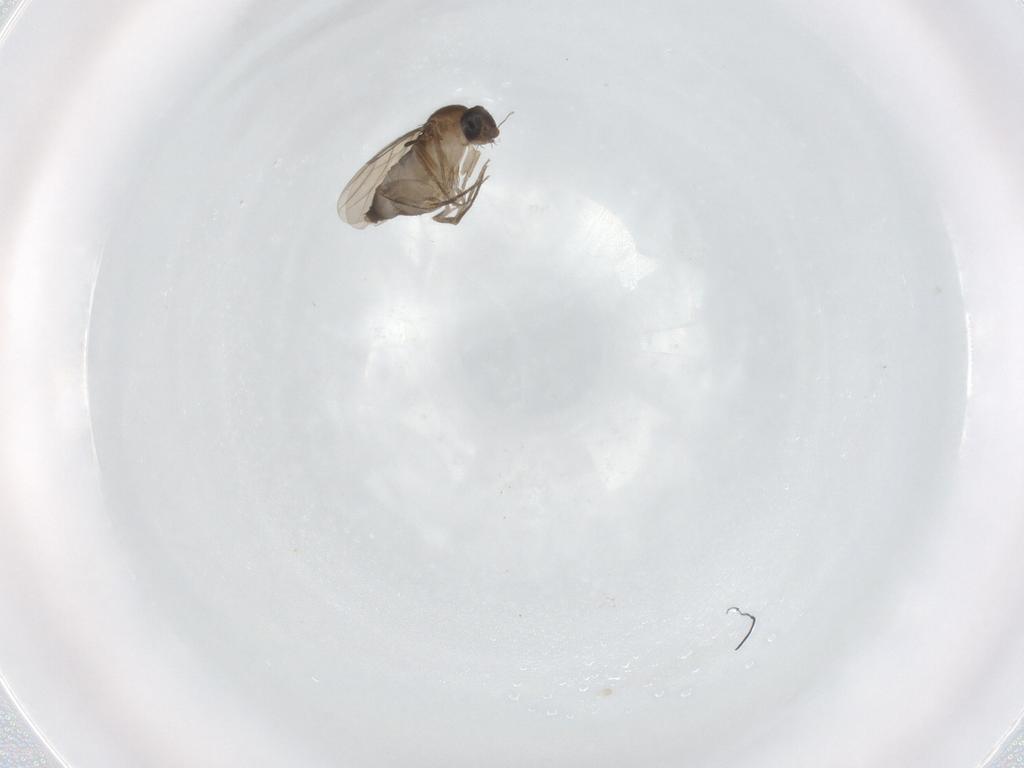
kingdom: Animalia
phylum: Arthropoda
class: Insecta
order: Diptera
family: Phoridae
